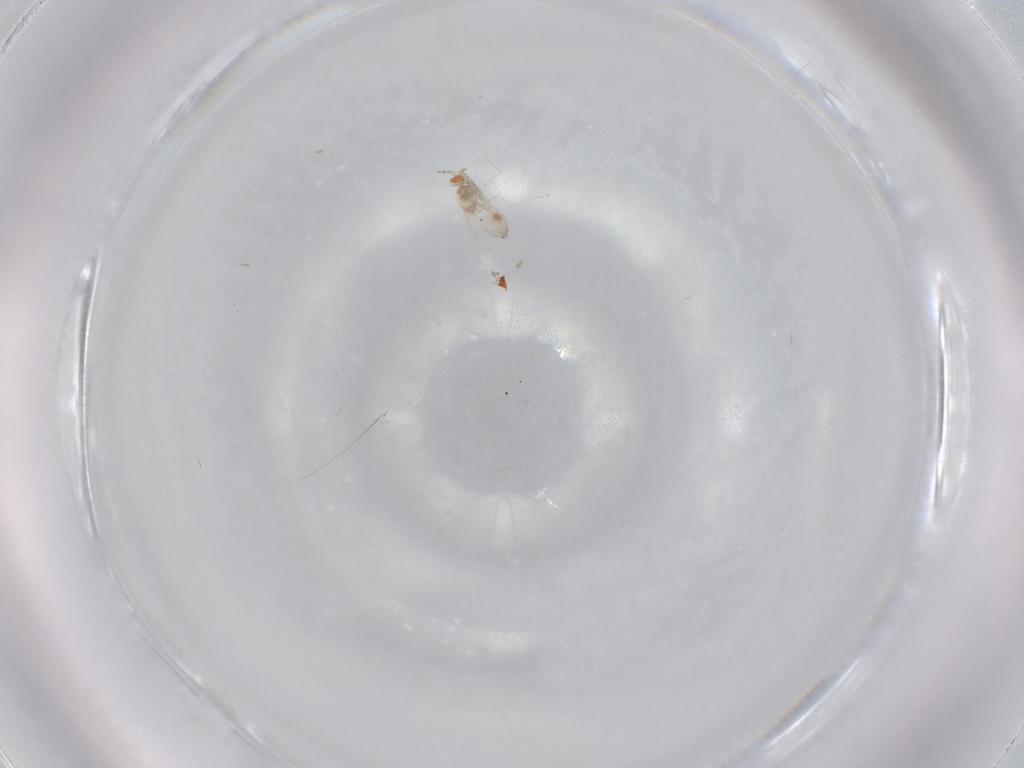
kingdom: Animalia
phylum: Arthropoda
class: Insecta
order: Diptera
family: Cecidomyiidae
